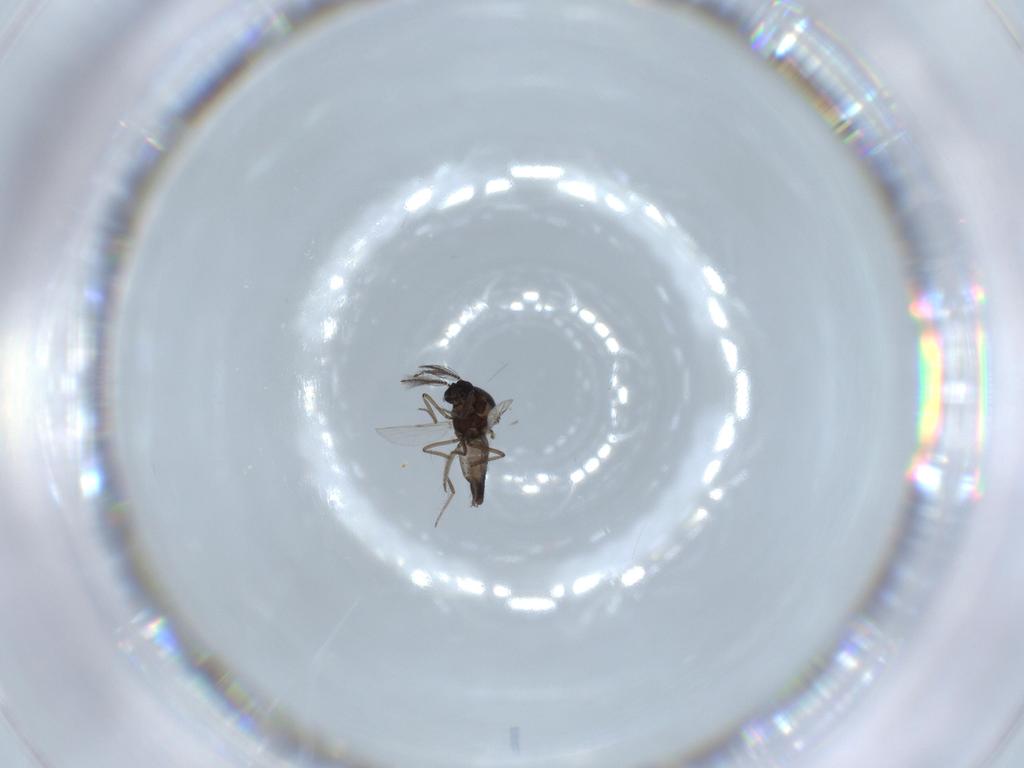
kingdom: Animalia
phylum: Arthropoda
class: Insecta
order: Diptera
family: Ceratopogonidae
